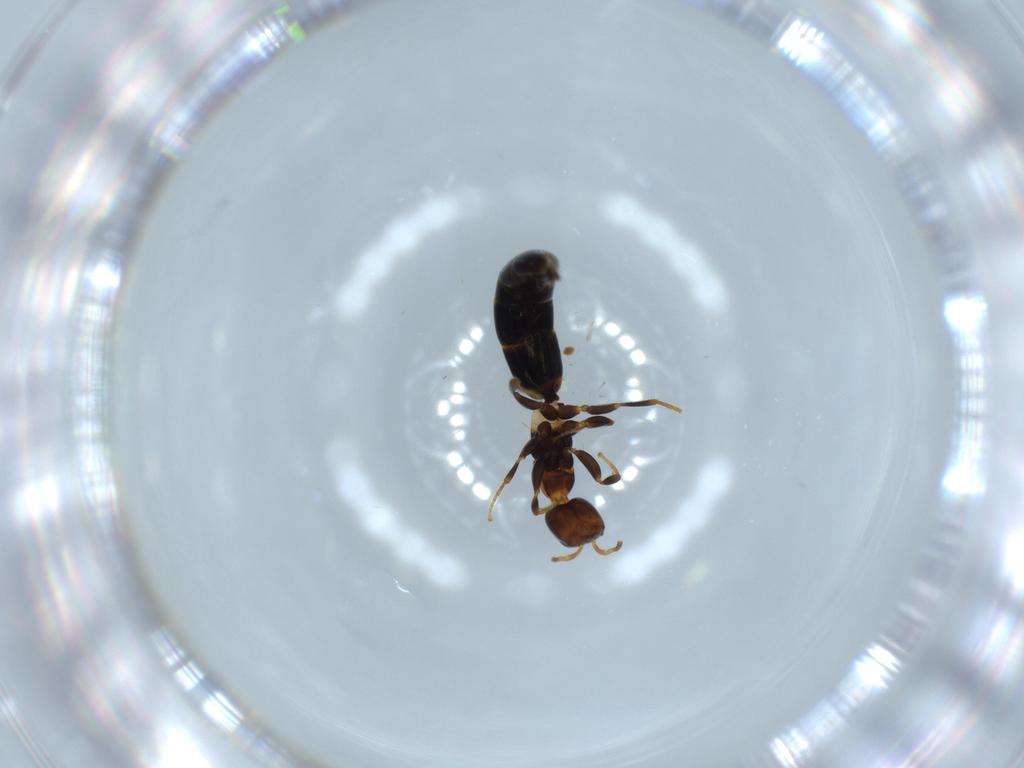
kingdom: Animalia
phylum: Arthropoda
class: Insecta
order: Hymenoptera
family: Bethylidae
